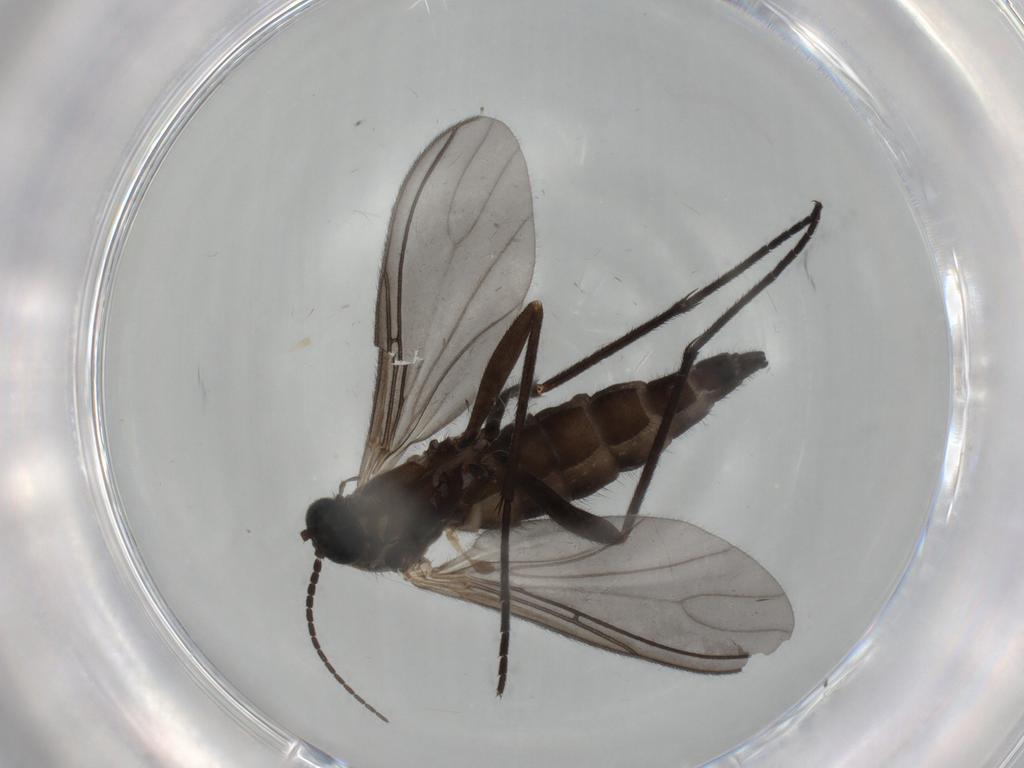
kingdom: Animalia
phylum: Arthropoda
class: Insecta
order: Diptera
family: Sciaridae
